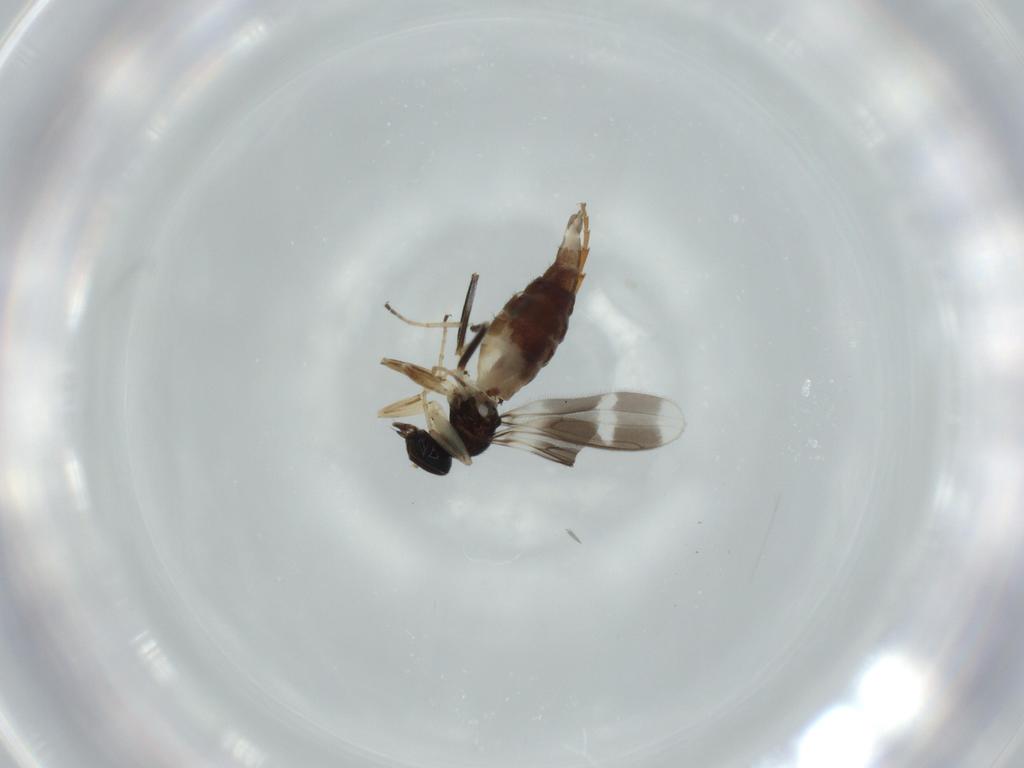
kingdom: Animalia
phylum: Arthropoda
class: Insecta
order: Diptera
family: Hybotidae
